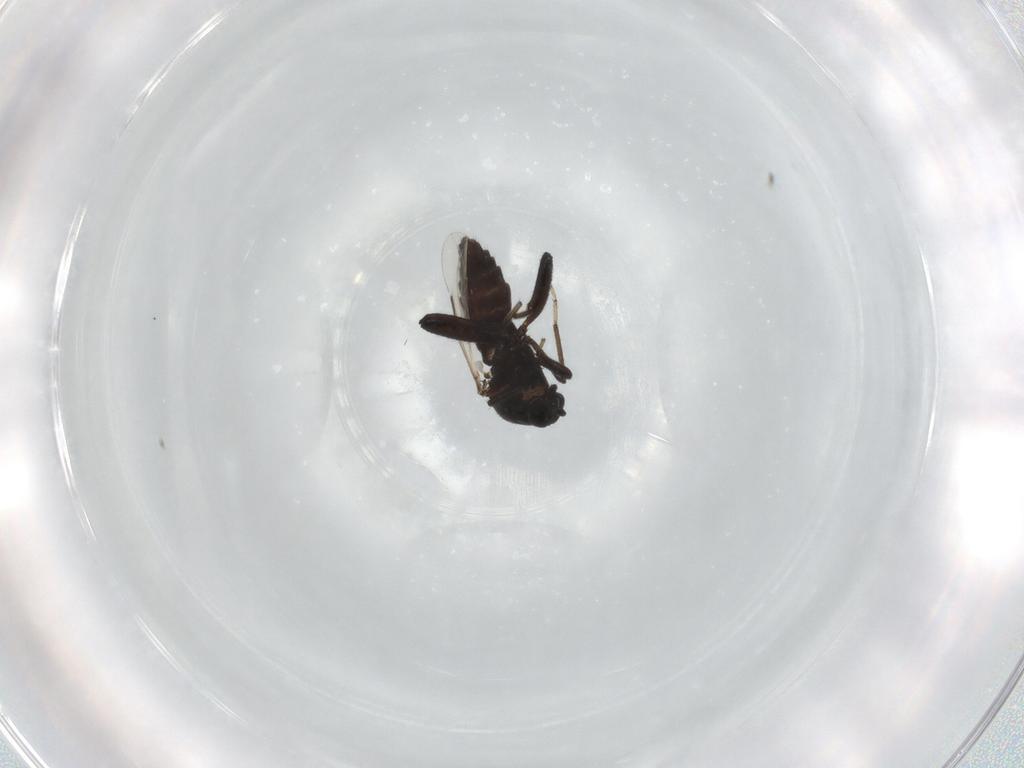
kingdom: Animalia
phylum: Arthropoda
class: Insecta
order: Diptera
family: Ceratopogonidae
